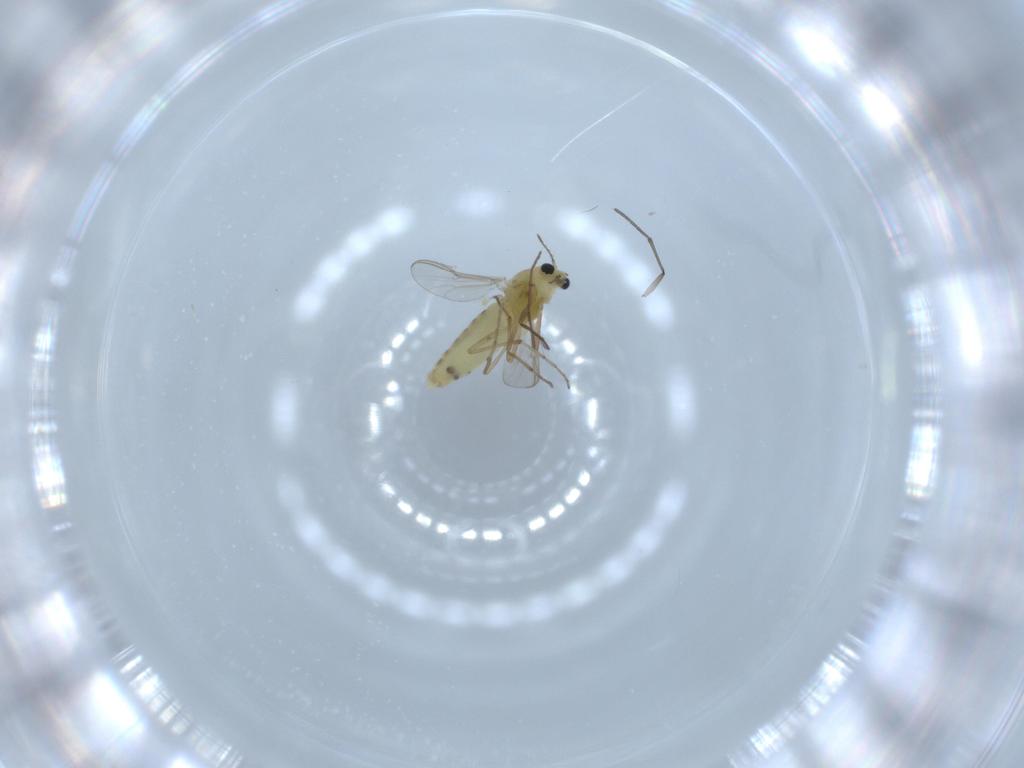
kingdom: Animalia
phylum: Arthropoda
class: Insecta
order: Diptera
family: Chironomidae
